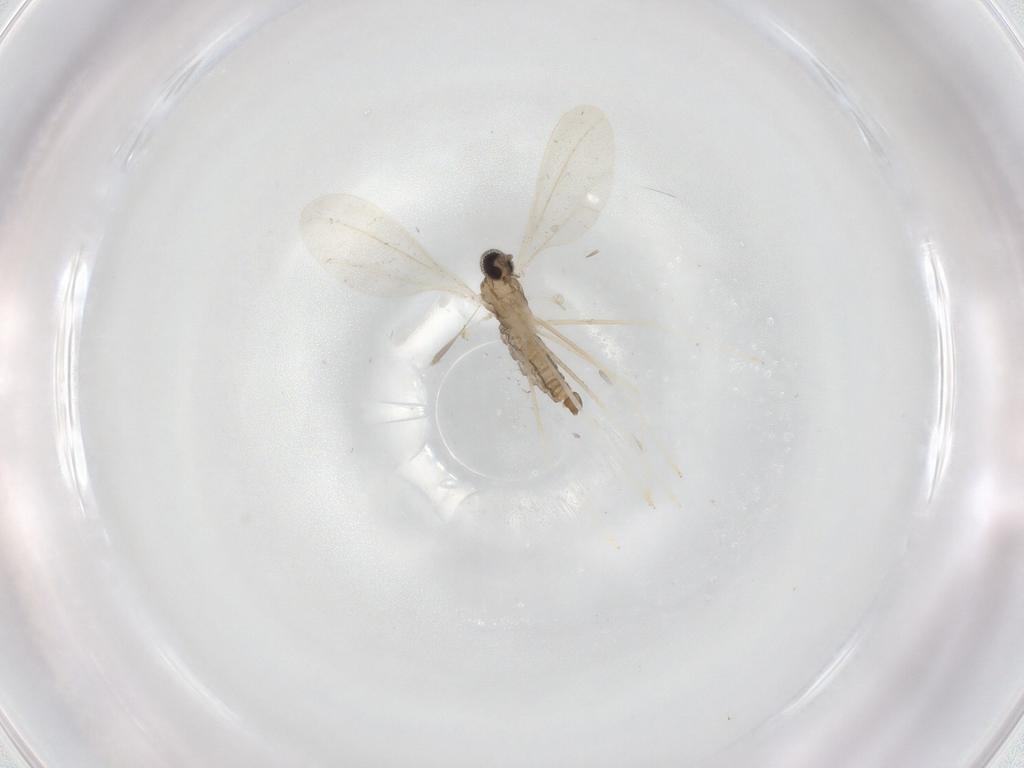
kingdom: Animalia
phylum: Arthropoda
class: Insecta
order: Diptera
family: Cecidomyiidae
